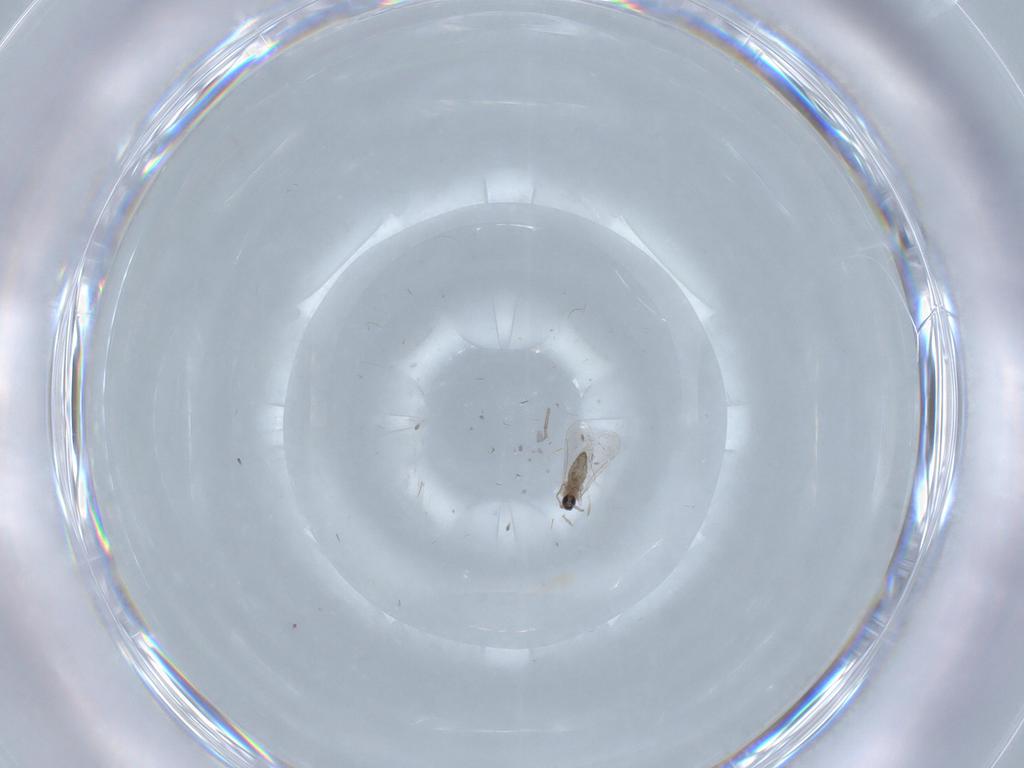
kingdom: Animalia
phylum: Arthropoda
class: Insecta
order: Diptera
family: Cecidomyiidae
